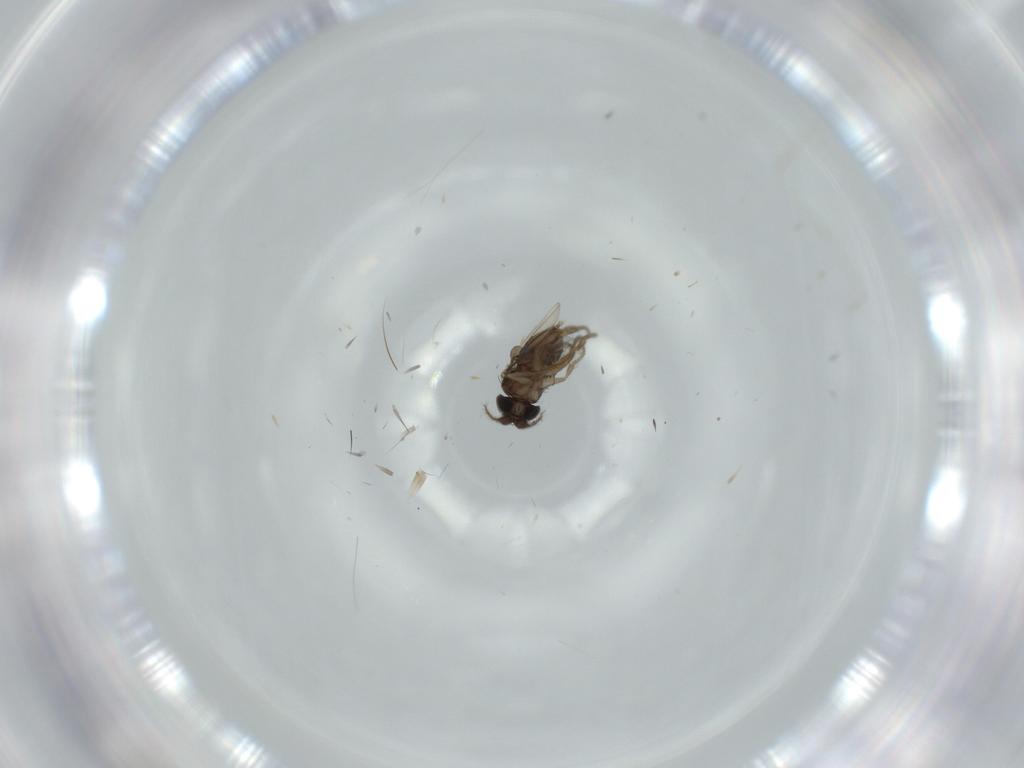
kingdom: Animalia
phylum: Arthropoda
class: Insecta
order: Diptera
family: Phoridae
